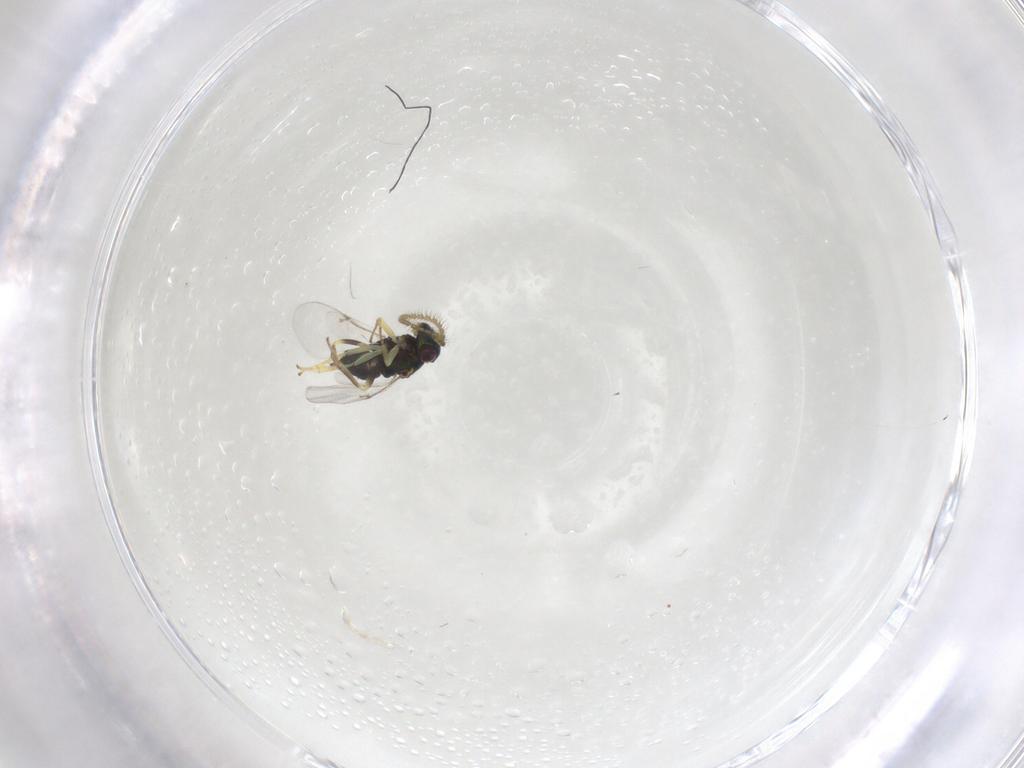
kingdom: Animalia
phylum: Arthropoda
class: Insecta
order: Hymenoptera
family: Encyrtidae
